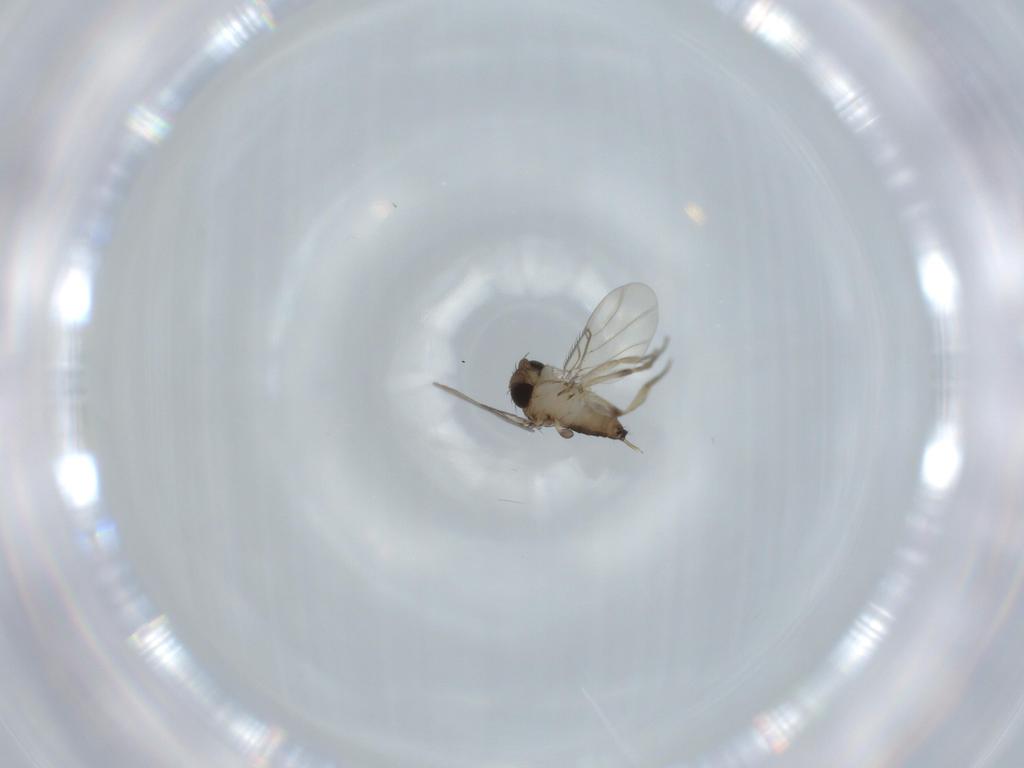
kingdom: Animalia
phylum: Arthropoda
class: Insecta
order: Diptera
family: Phoridae
